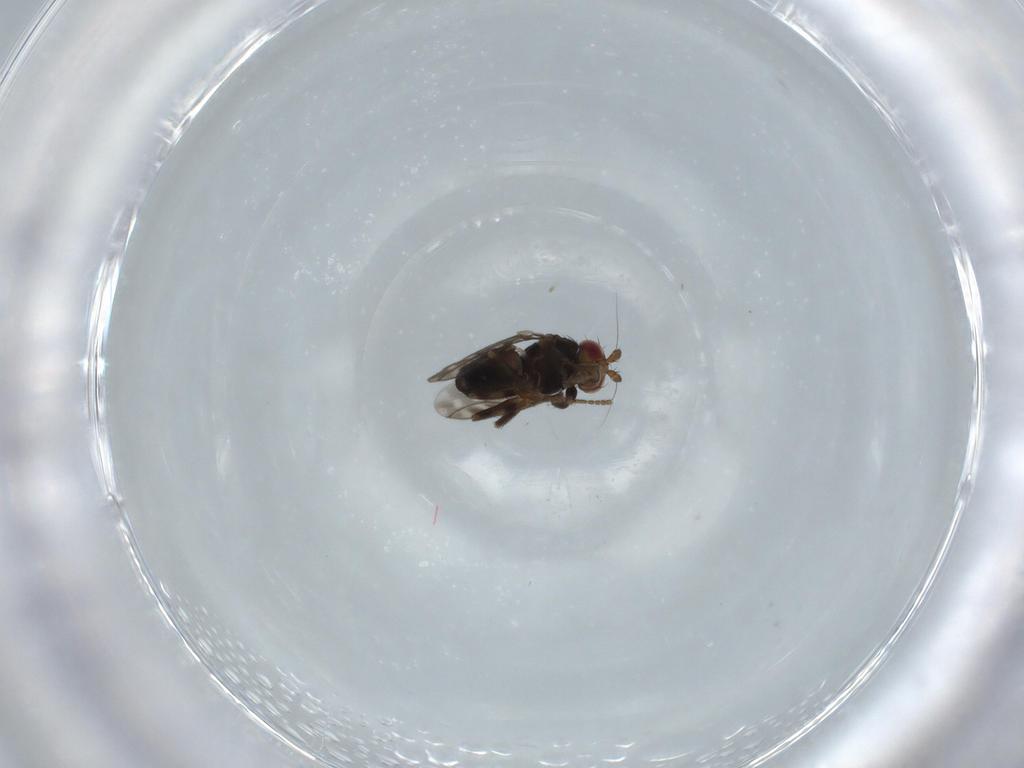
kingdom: Animalia
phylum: Arthropoda
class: Insecta
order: Diptera
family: Sphaeroceridae
